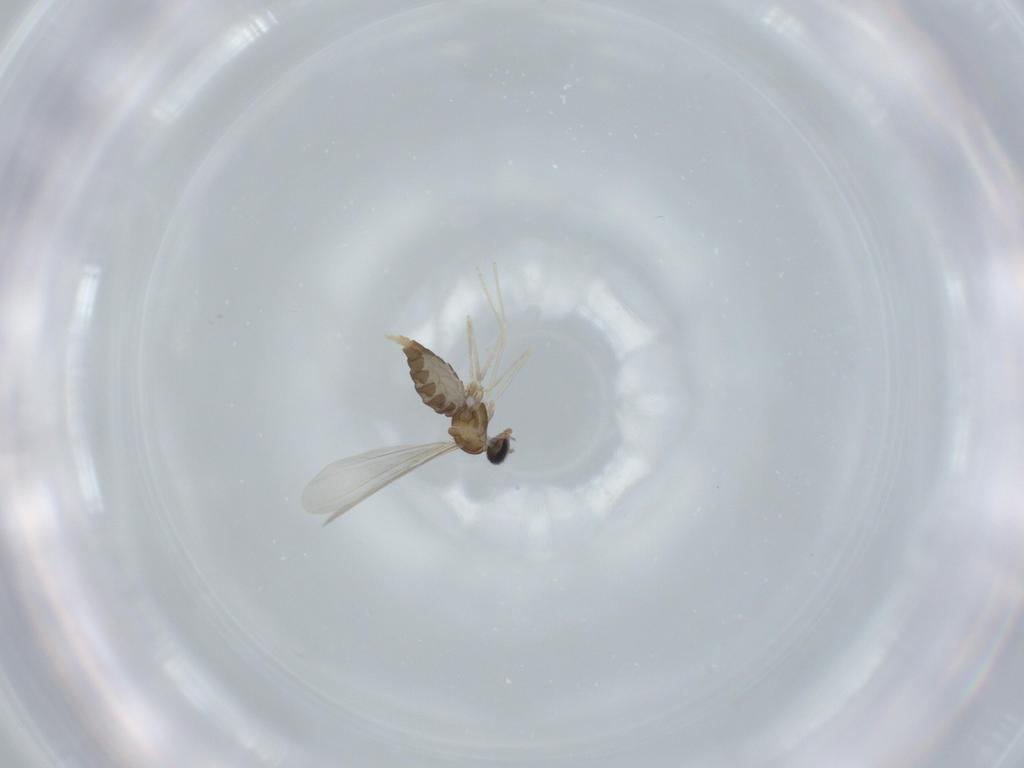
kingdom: Animalia
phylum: Arthropoda
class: Insecta
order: Diptera
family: Cecidomyiidae
